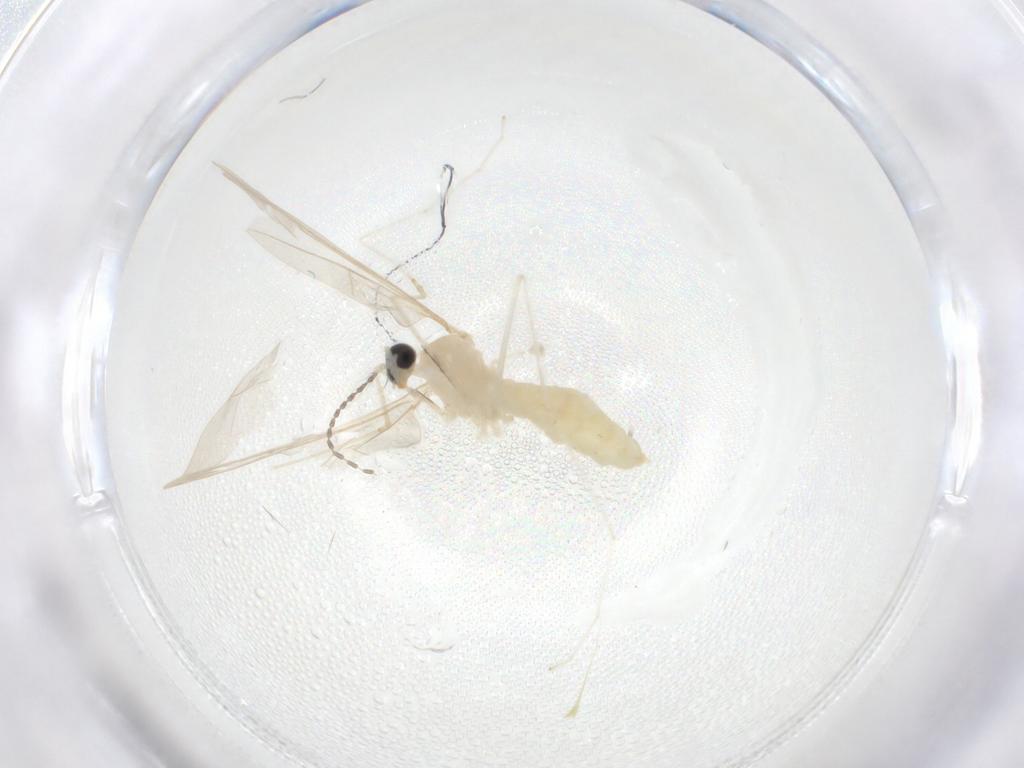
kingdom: Animalia
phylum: Arthropoda
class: Insecta
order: Diptera
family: Cecidomyiidae
